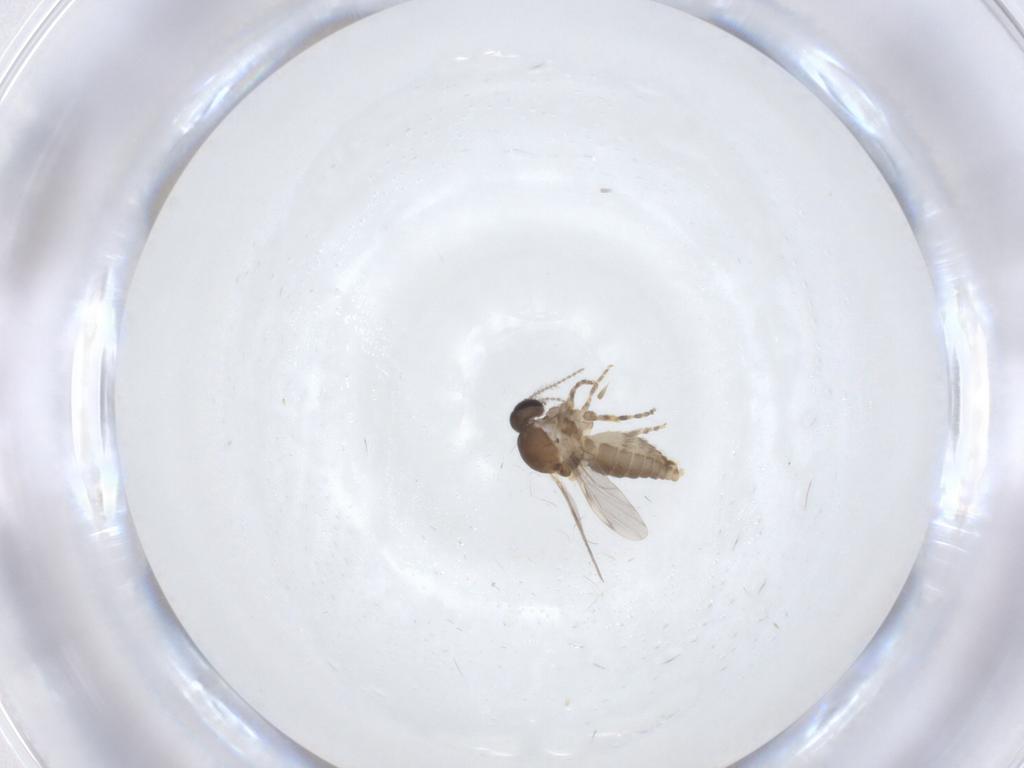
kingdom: Animalia
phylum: Arthropoda
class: Insecta
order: Diptera
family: Ceratopogonidae
